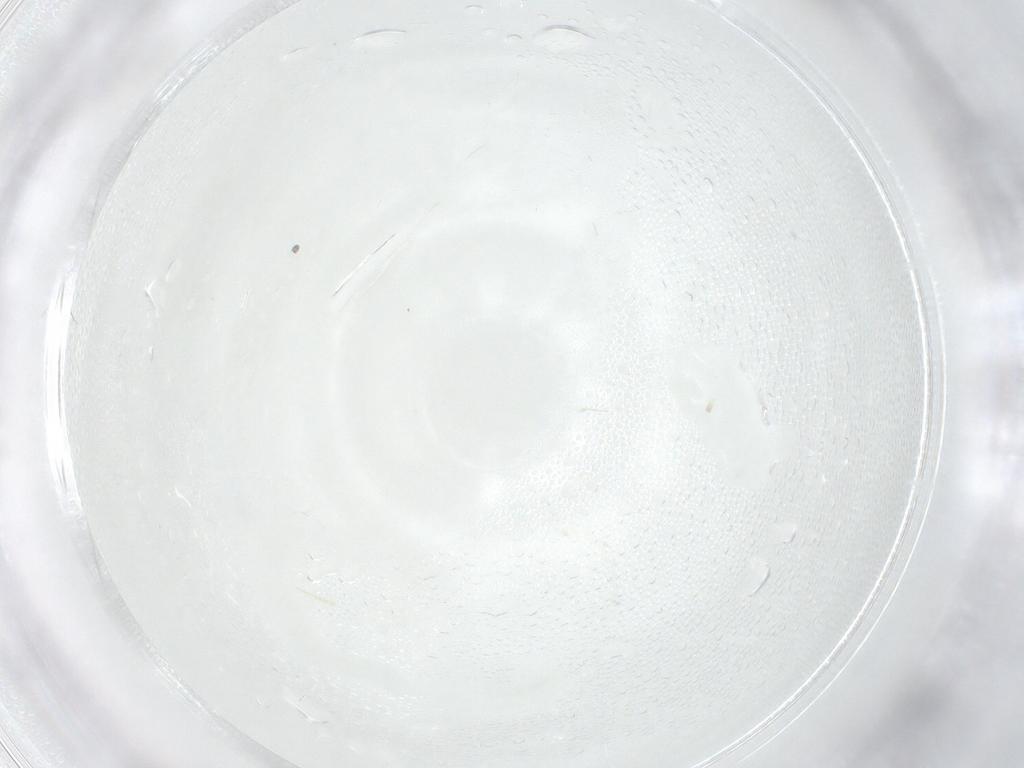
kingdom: Animalia
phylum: Arthropoda
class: Insecta
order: Diptera
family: Cecidomyiidae
